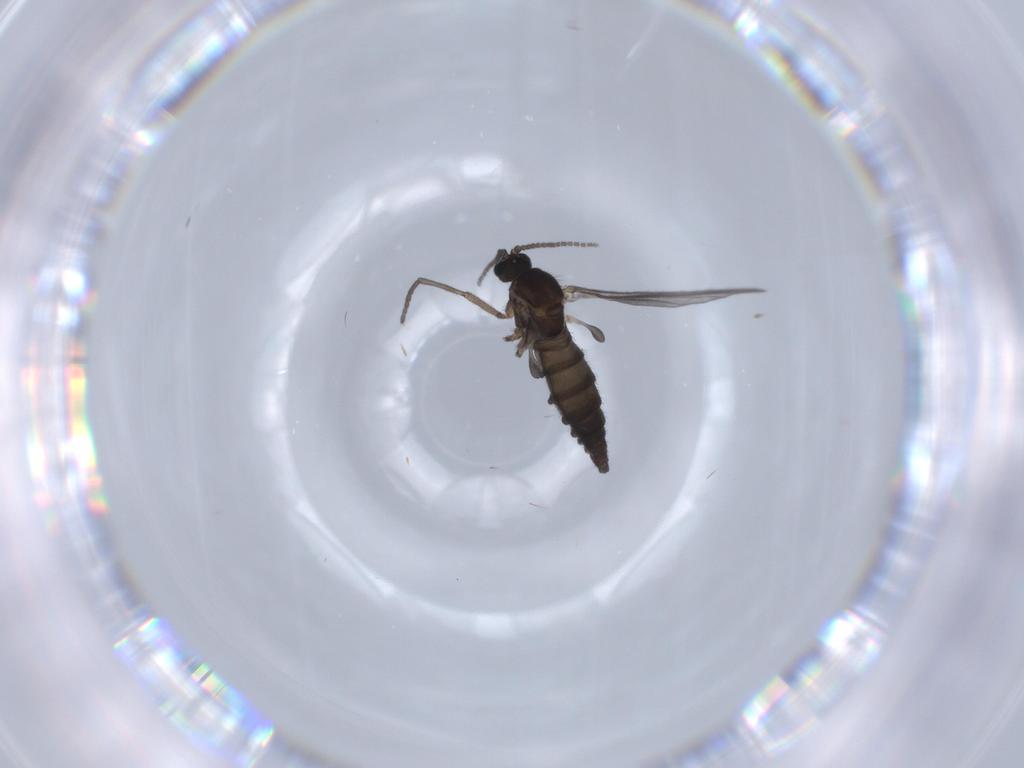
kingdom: Animalia
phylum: Arthropoda
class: Insecta
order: Diptera
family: Sciaridae
